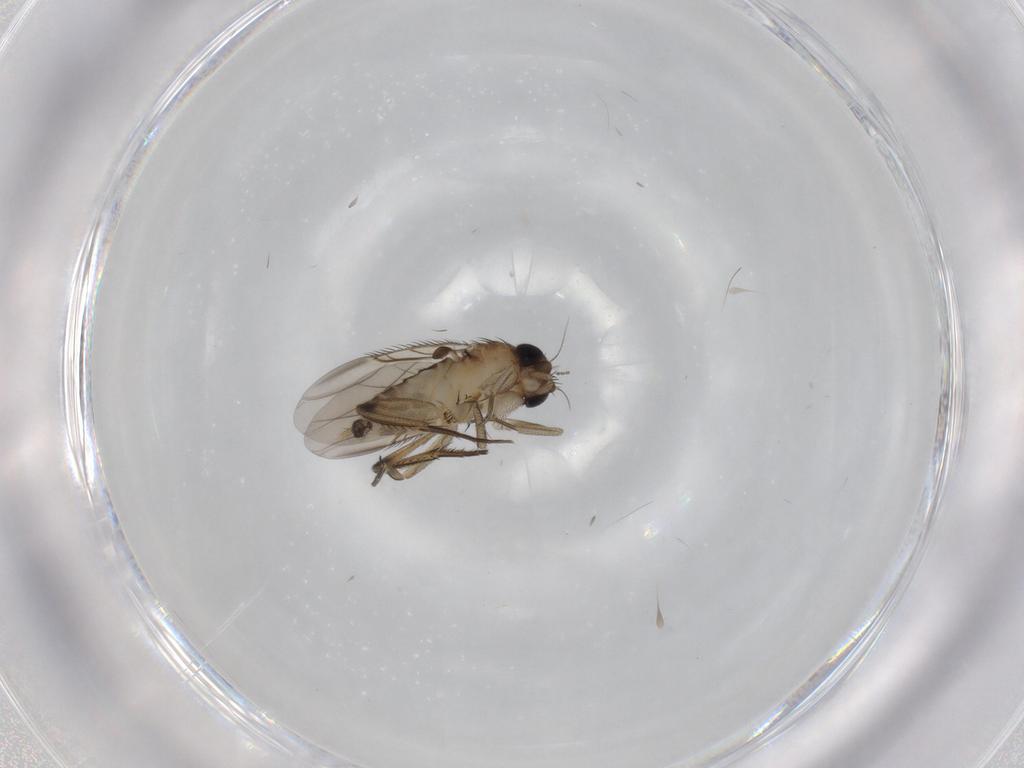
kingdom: Animalia
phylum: Arthropoda
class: Insecta
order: Diptera
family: Phoridae
